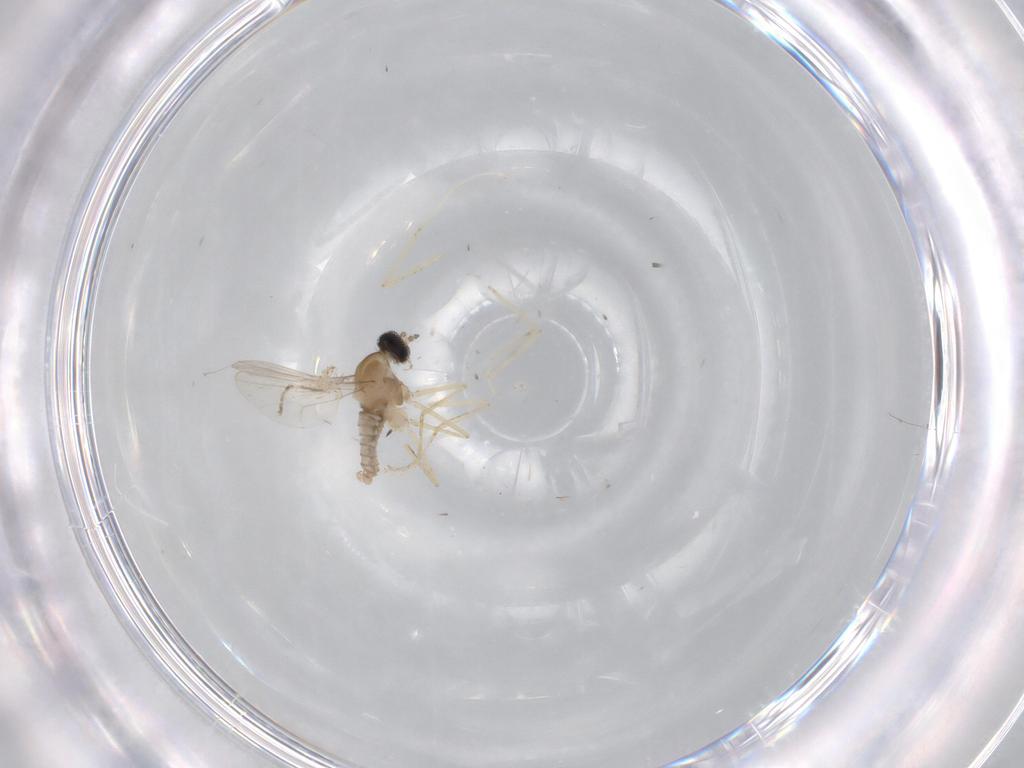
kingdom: Animalia
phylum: Arthropoda
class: Insecta
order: Diptera
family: Cecidomyiidae
